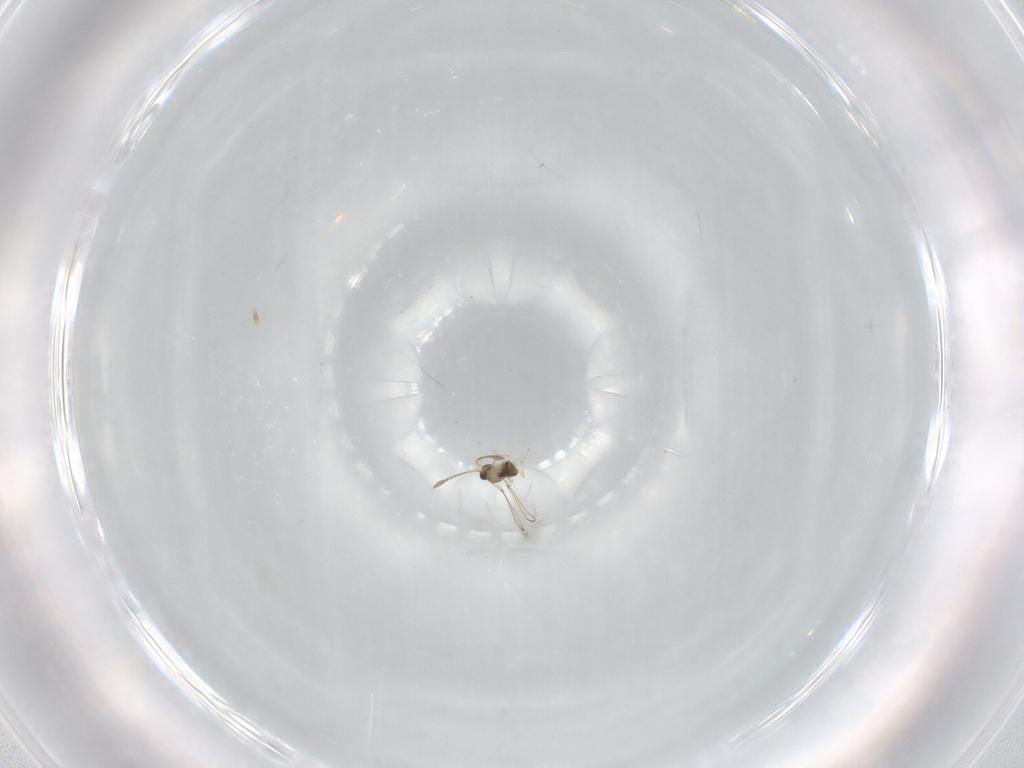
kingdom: Animalia
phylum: Arthropoda
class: Insecta
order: Hymenoptera
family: Mymaridae
